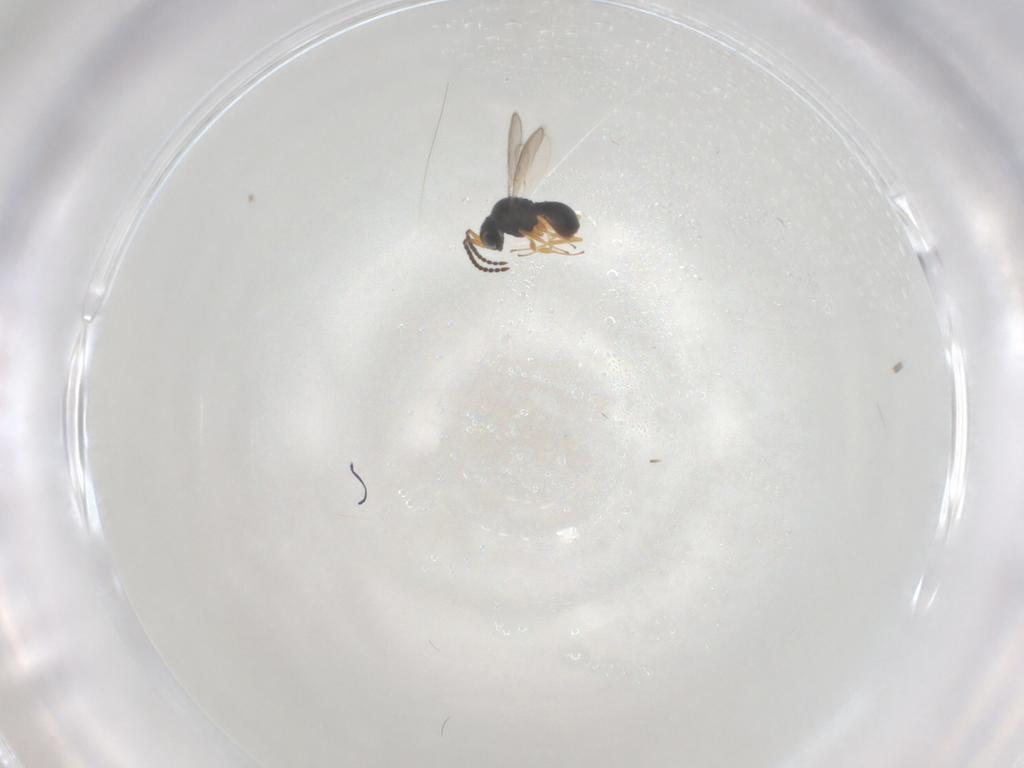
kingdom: Animalia
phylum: Arthropoda
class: Insecta
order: Hymenoptera
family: Scelionidae
